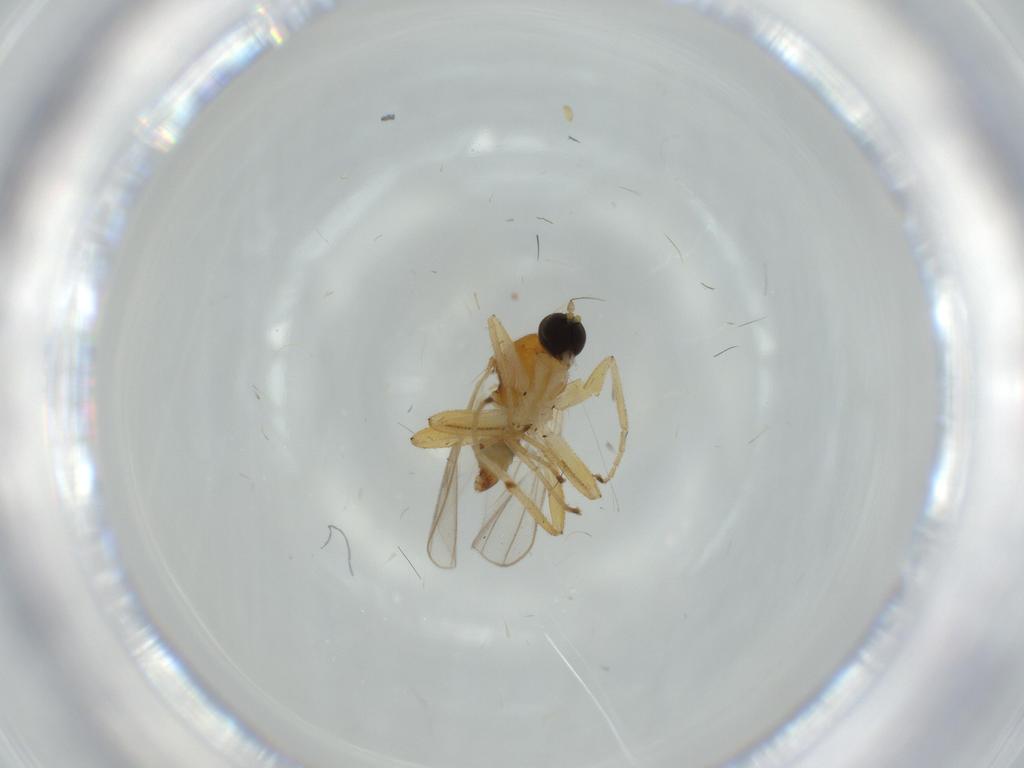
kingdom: Animalia
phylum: Arthropoda
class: Insecta
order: Diptera
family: Hybotidae
